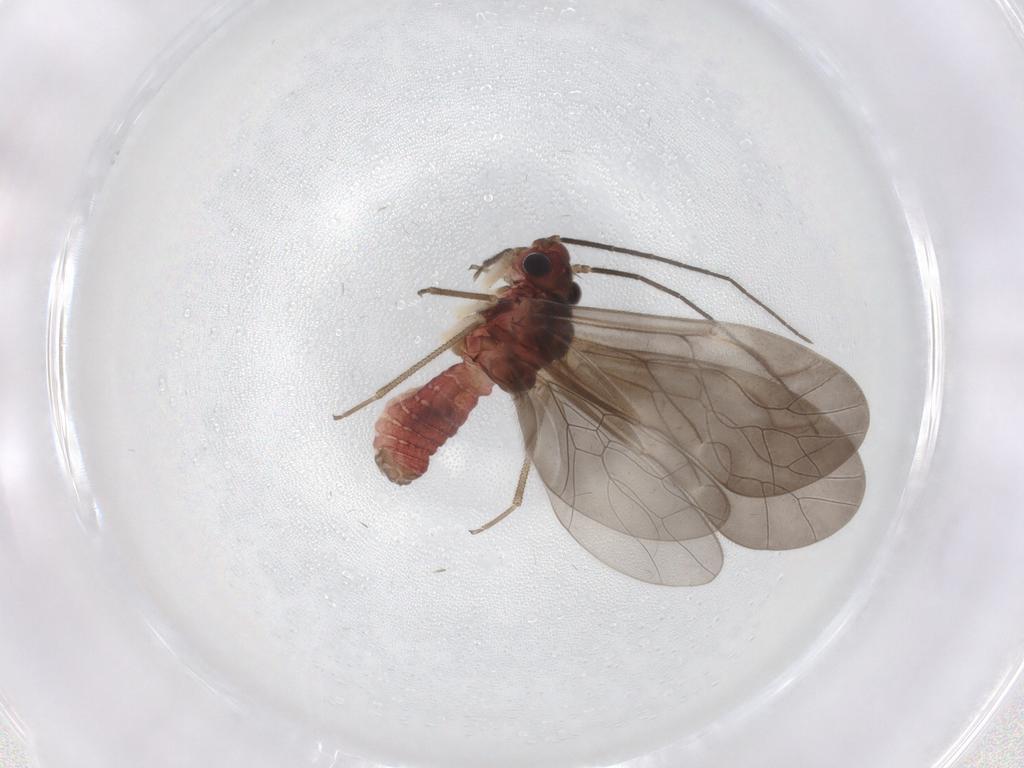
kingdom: Animalia
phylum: Arthropoda
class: Insecta
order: Psocodea
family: Caeciliusidae
